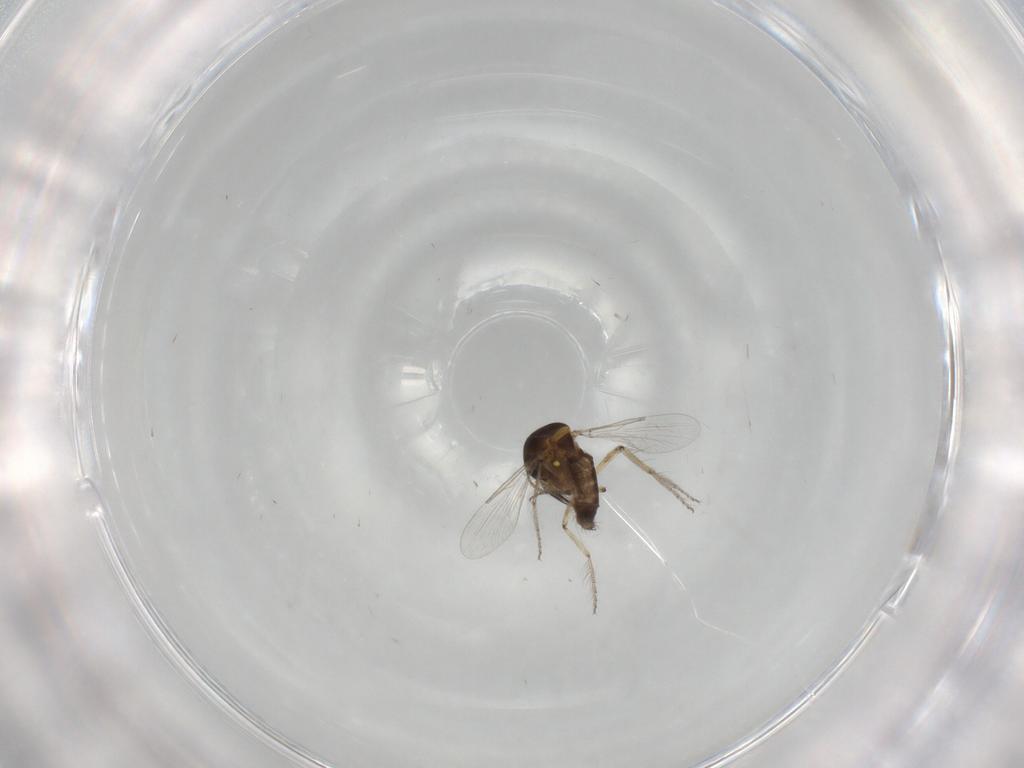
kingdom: Animalia
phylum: Arthropoda
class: Insecta
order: Diptera
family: Ceratopogonidae
